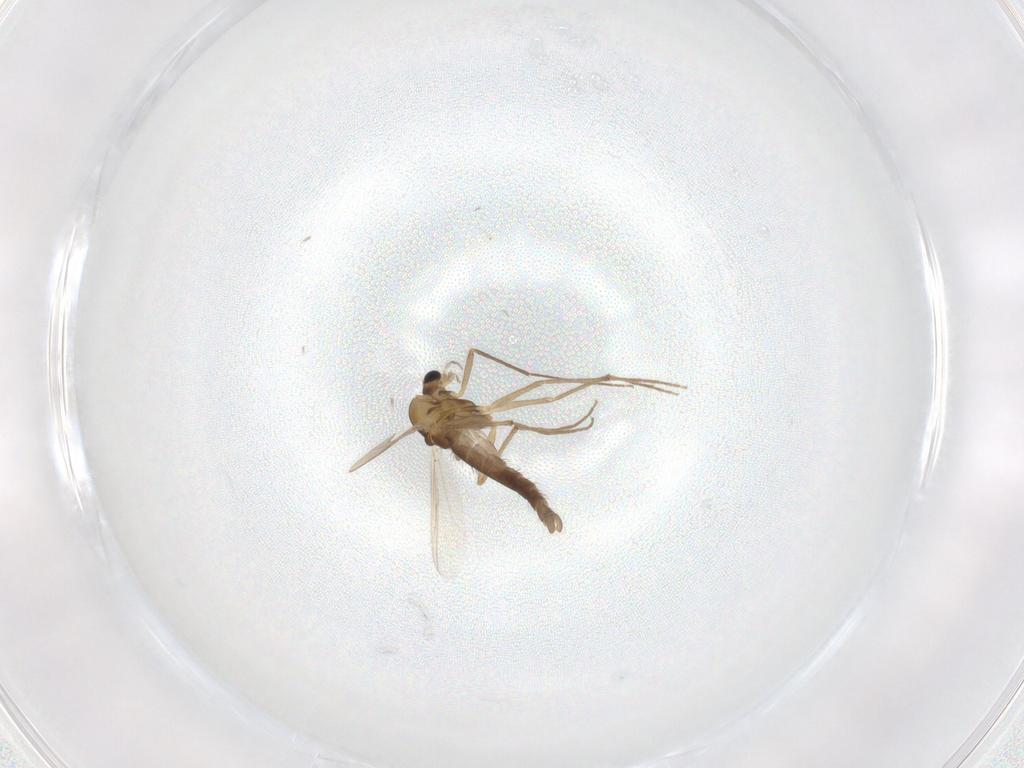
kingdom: Animalia
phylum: Arthropoda
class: Insecta
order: Diptera
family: Chironomidae
